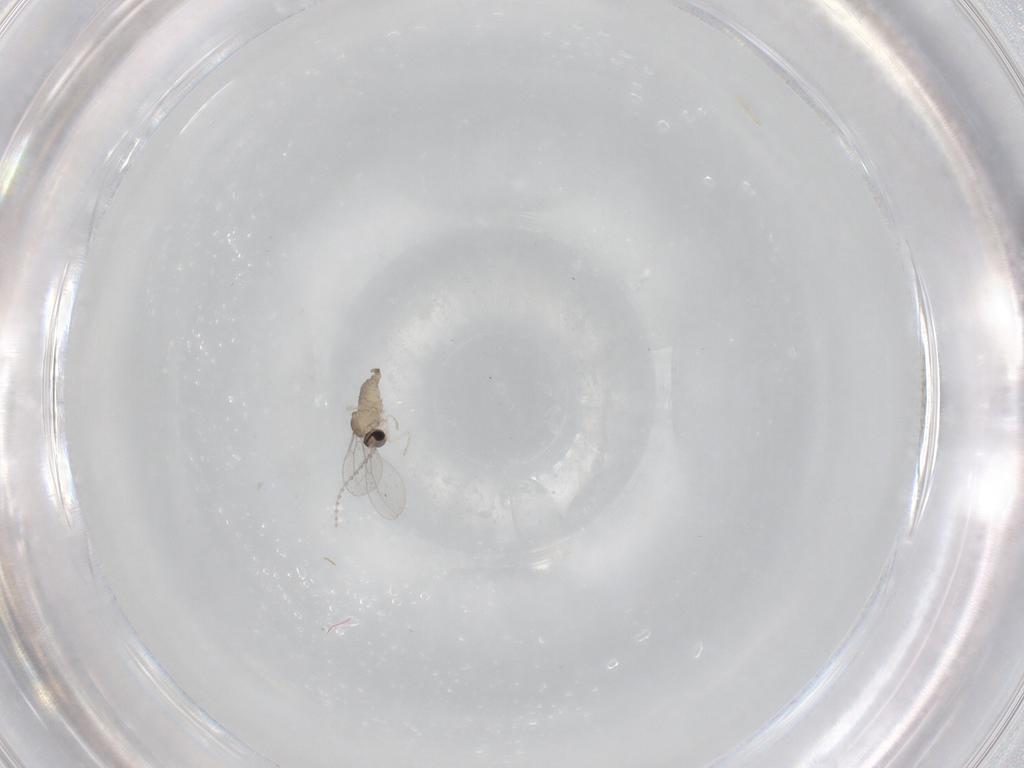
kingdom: Animalia
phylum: Arthropoda
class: Insecta
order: Diptera
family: Cecidomyiidae
